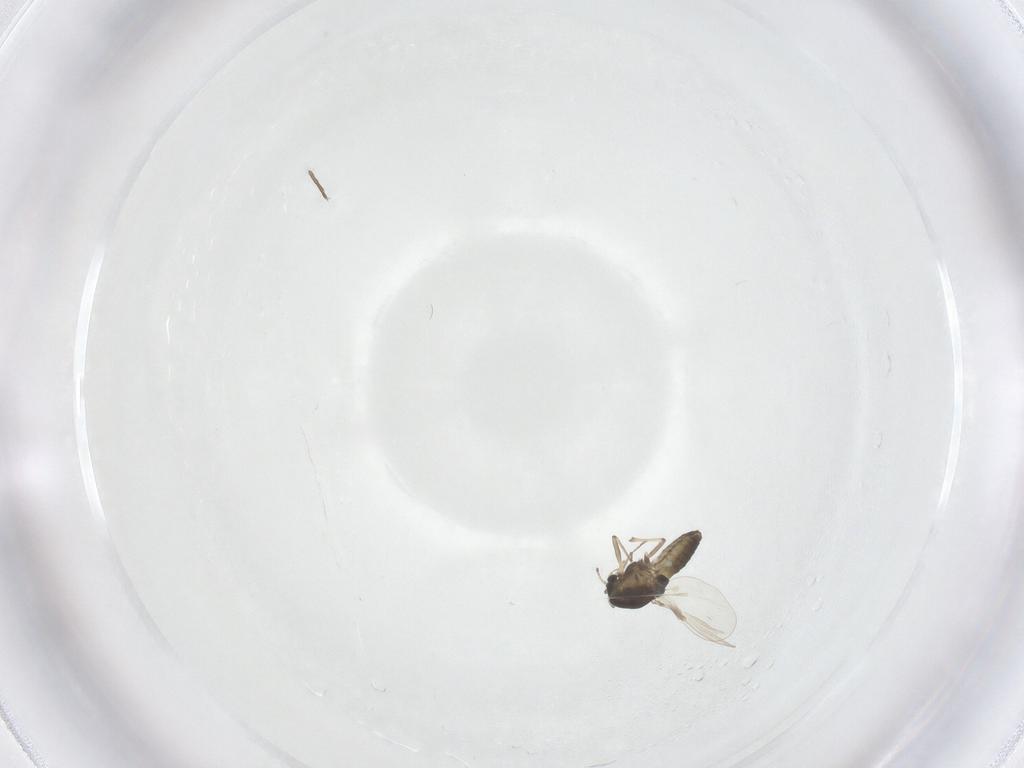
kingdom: Animalia
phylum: Arthropoda
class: Insecta
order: Diptera
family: Chironomidae
